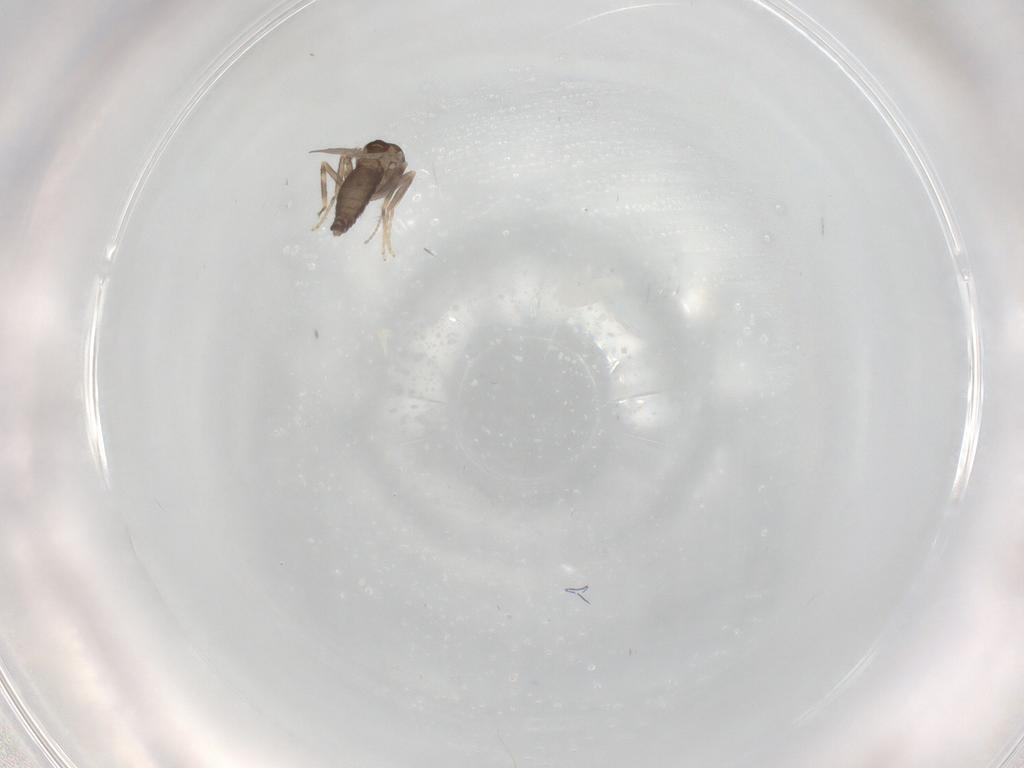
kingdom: Animalia
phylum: Arthropoda
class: Insecta
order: Diptera
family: Ceratopogonidae
